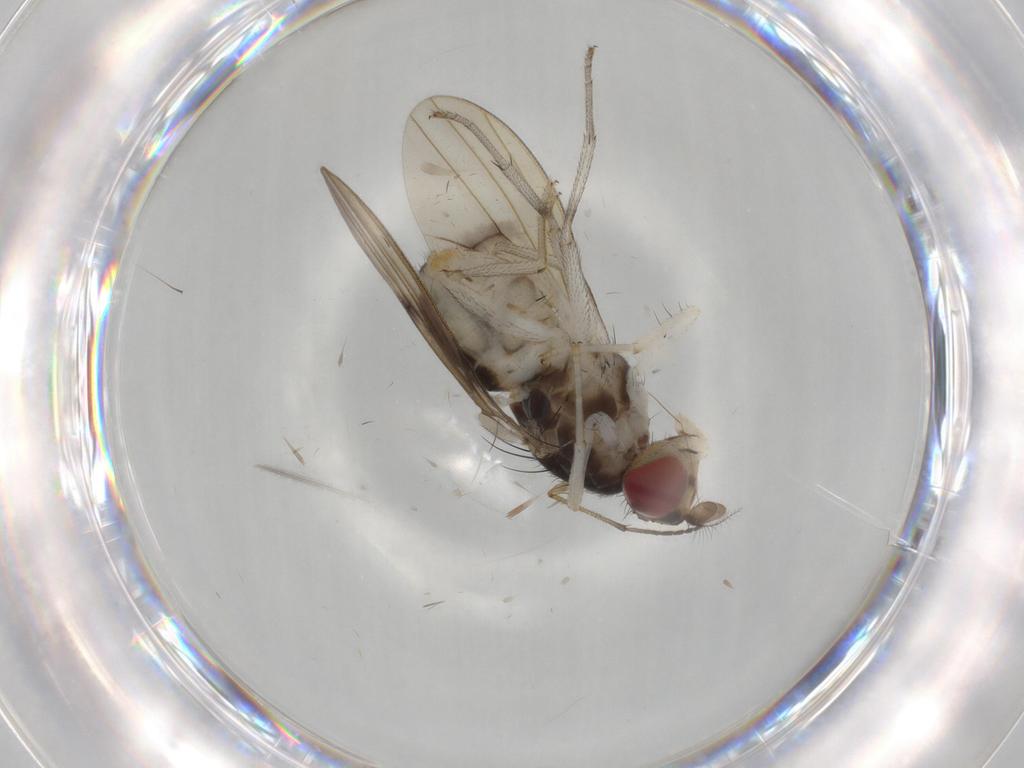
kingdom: Animalia
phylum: Arthropoda
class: Insecta
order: Diptera
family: Sciaridae
